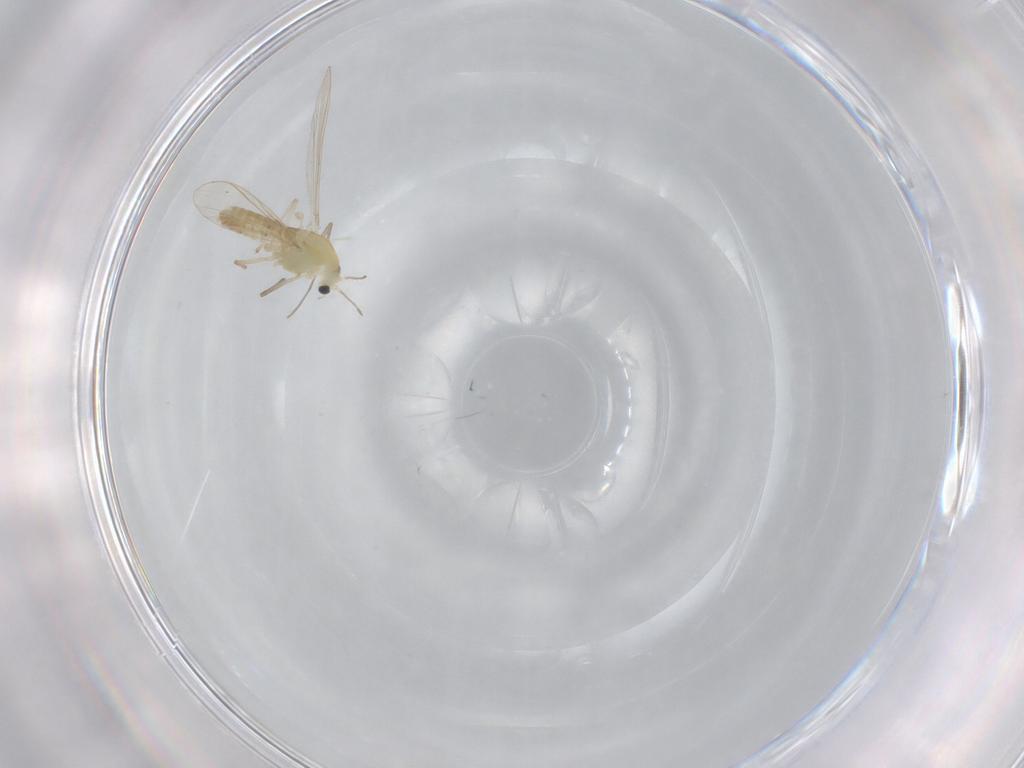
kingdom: Animalia
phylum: Arthropoda
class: Insecta
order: Diptera
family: Chironomidae
